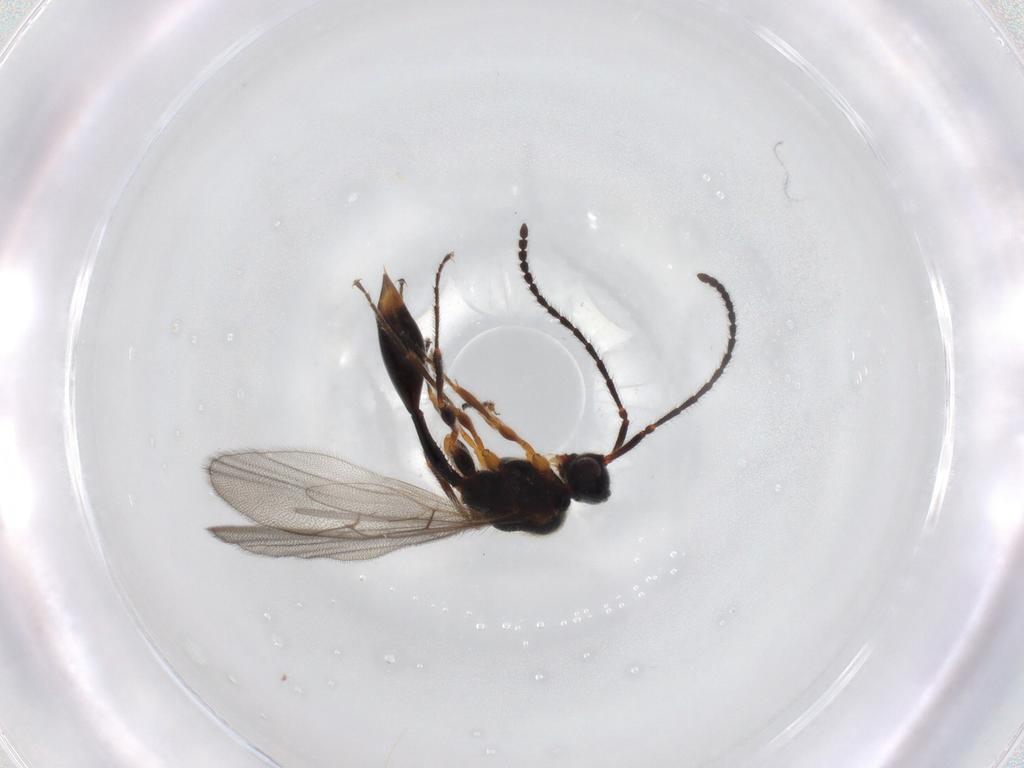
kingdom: Animalia
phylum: Arthropoda
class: Insecta
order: Hymenoptera
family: Diapriidae
